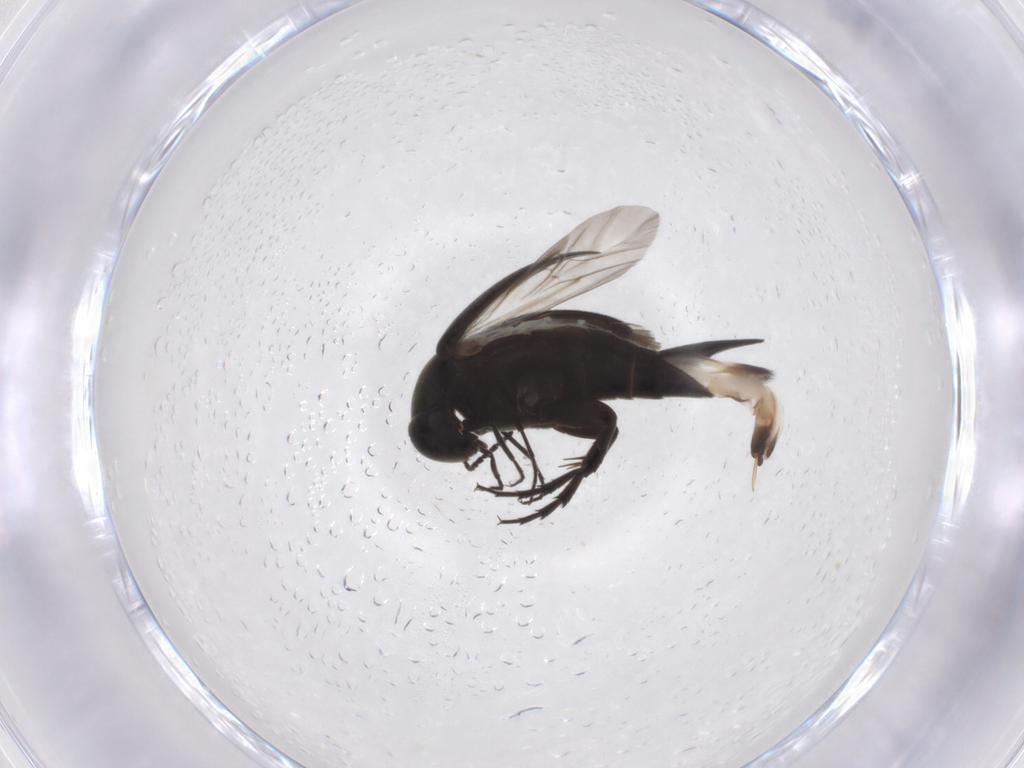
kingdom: Animalia
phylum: Arthropoda
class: Insecta
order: Coleoptera
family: Mordellidae
